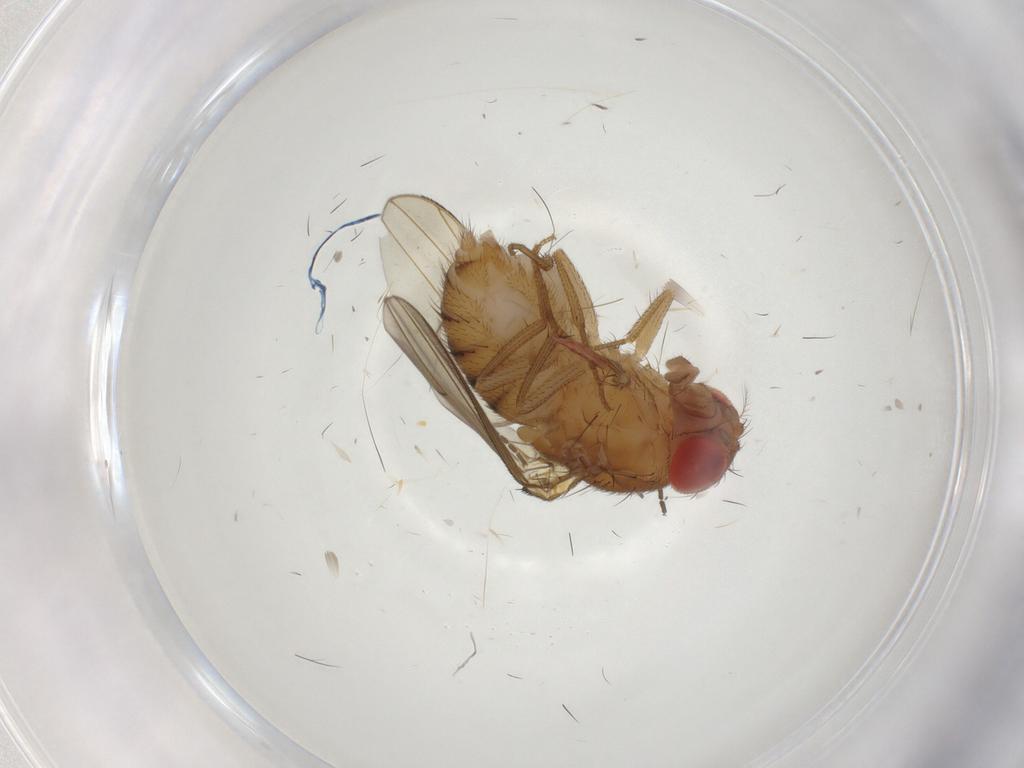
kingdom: Animalia
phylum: Arthropoda
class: Insecta
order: Diptera
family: Drosophilidae
